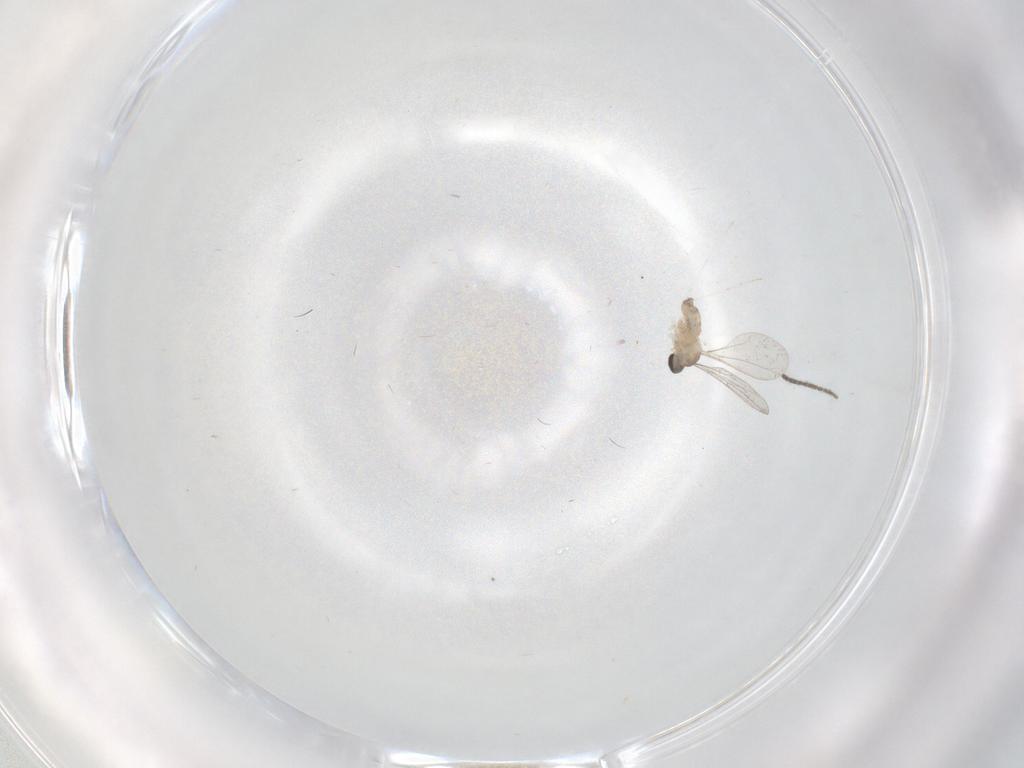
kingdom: Animalia
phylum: Arthropoda
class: Insecta
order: Diptera
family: Sciaridae
